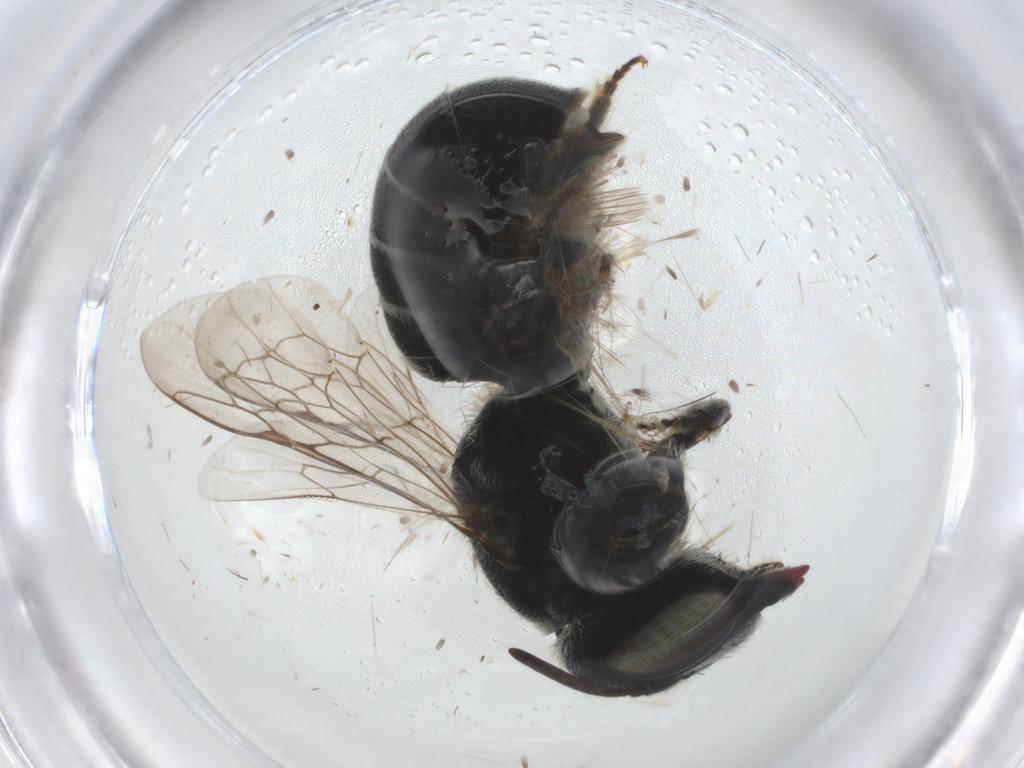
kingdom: Animalia
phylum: Arthropoda
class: Insecta
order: Hymenoptera
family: Megachilidae
